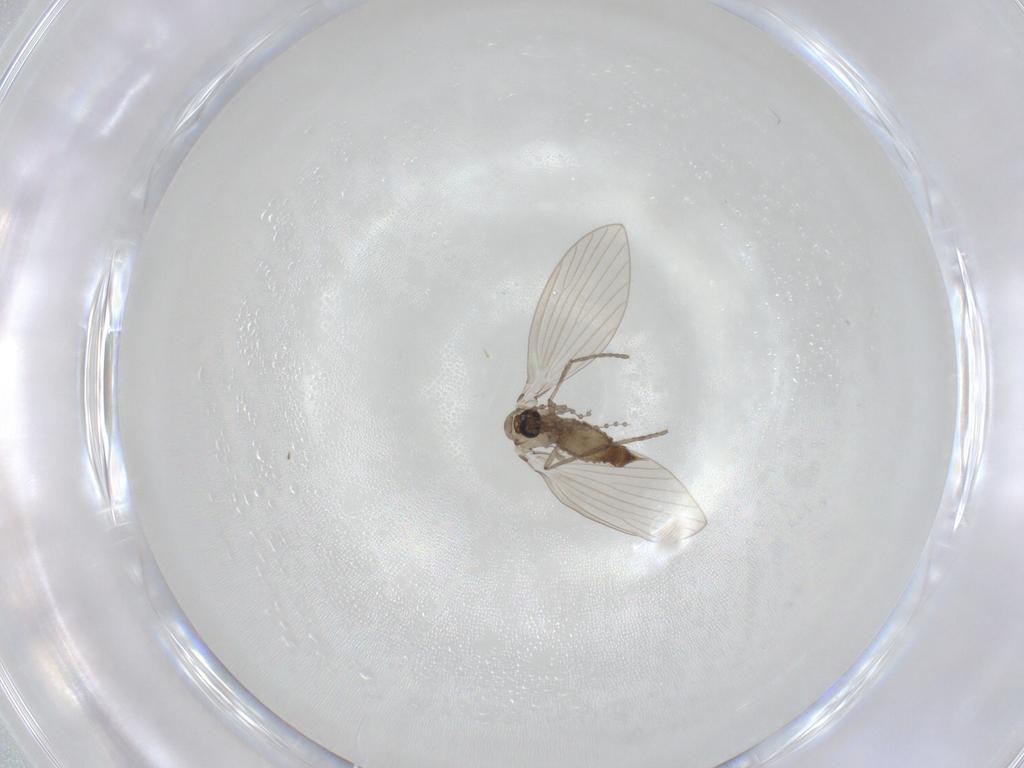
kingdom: Animalia
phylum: Arthropoda
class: Insecta
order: Diptera
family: Psychodidae
